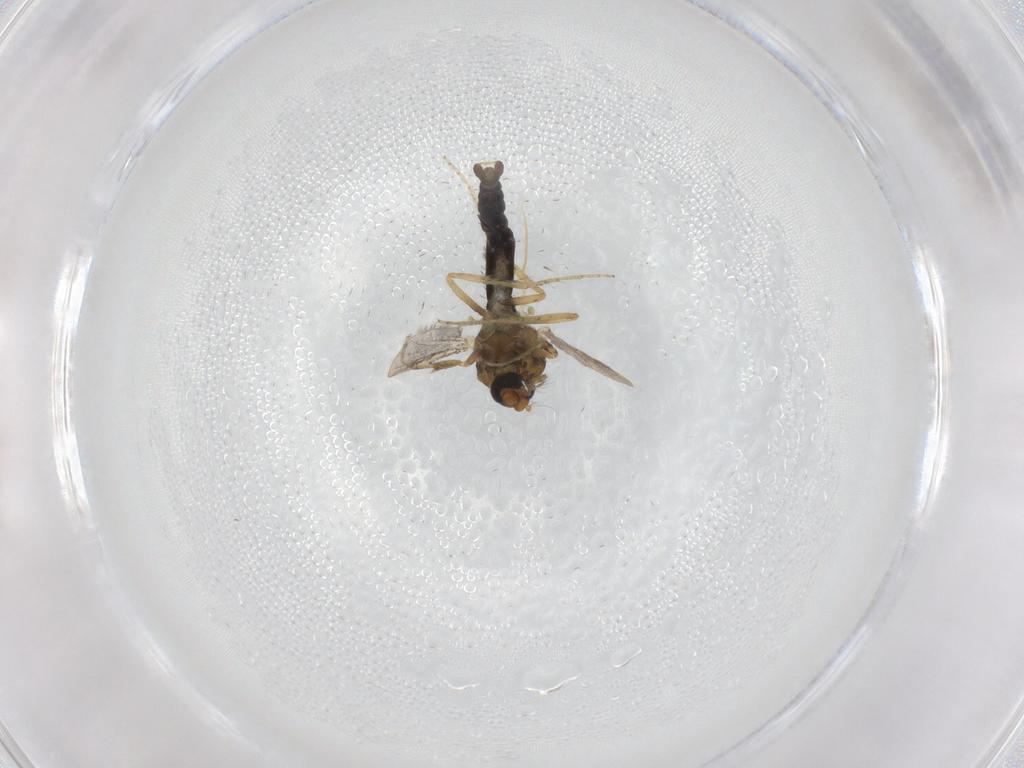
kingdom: Animalia
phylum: Arthropoda
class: Insecta
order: Diptera
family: Ceratopogonidae
